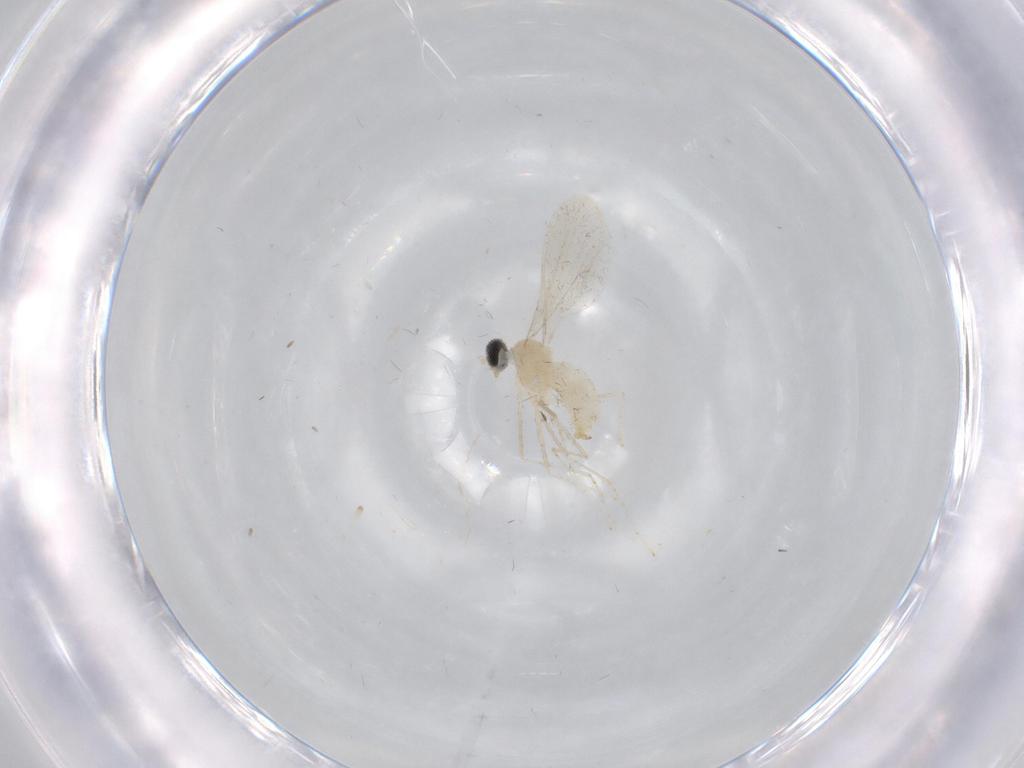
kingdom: Animalia
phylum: Arthropoda
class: Insecta
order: Diptera
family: Cecidomyiidae
